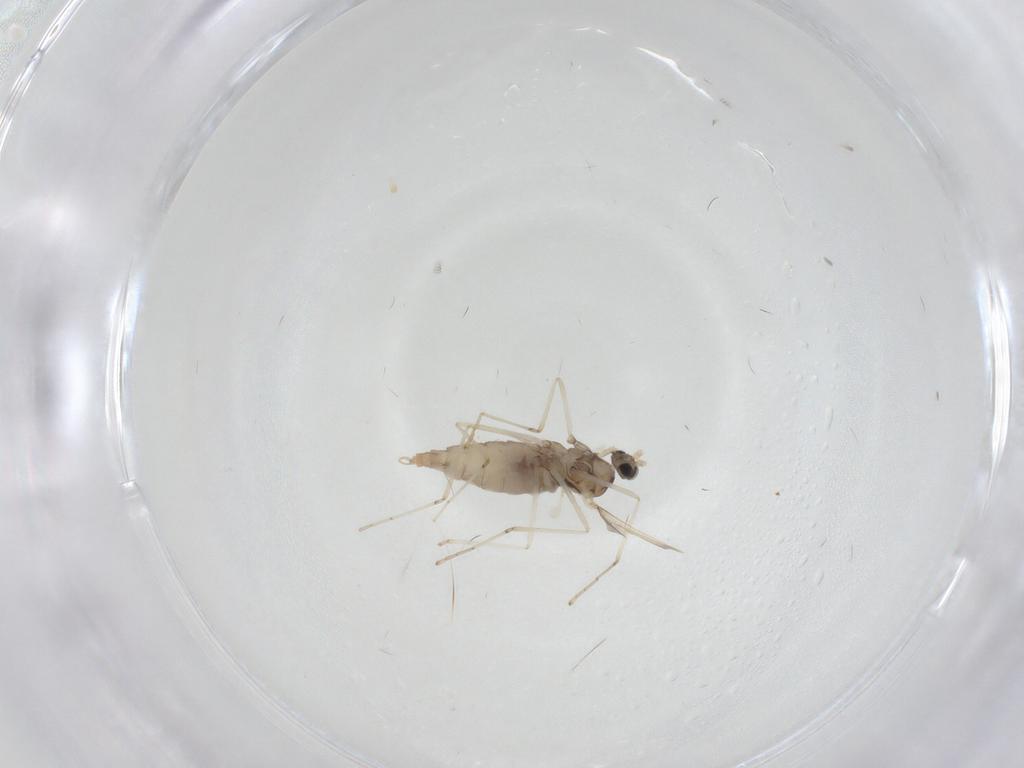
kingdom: Animalia
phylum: Arthropoda
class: Insecta
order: Diptera
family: Cecidomyiidae
